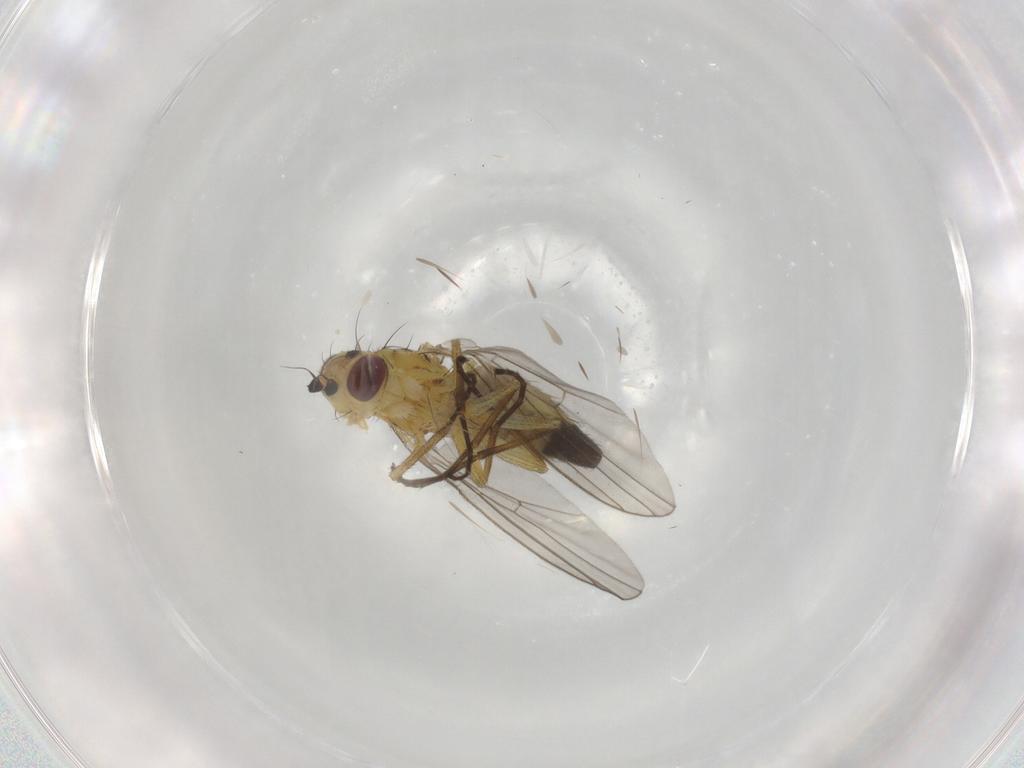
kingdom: Animalia
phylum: Arthropoda
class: Insecta
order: Diptera
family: Agromyzidae
